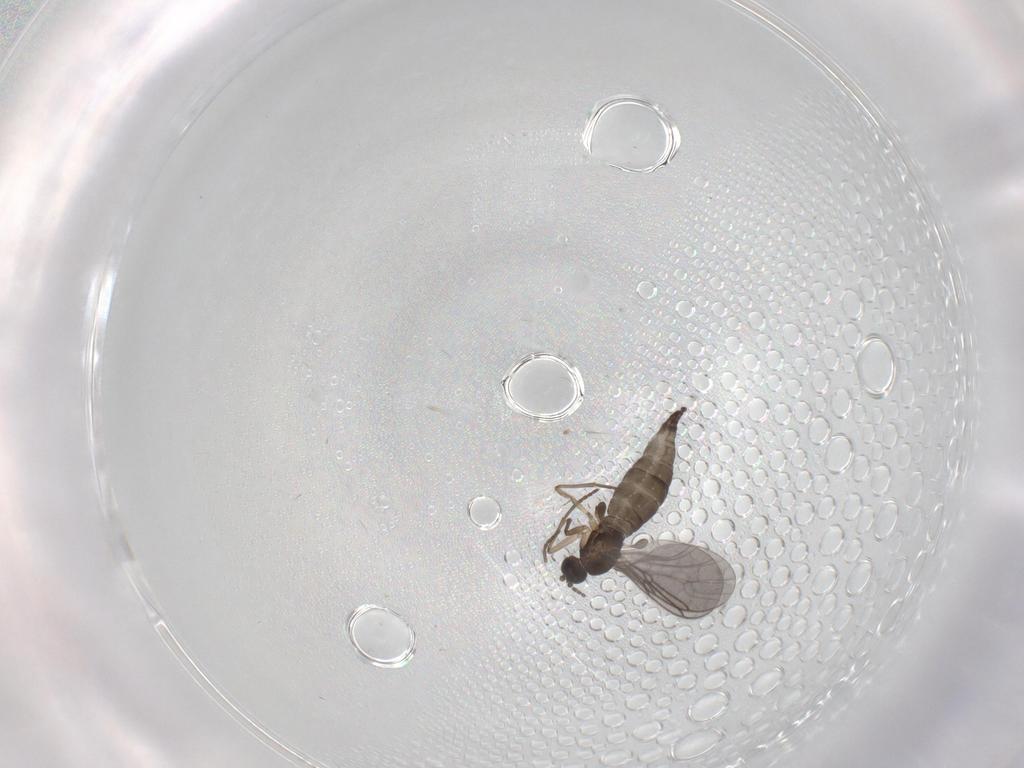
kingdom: Animalia
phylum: Arthropoda
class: Insecta
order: Diptera
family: Sciaridae
